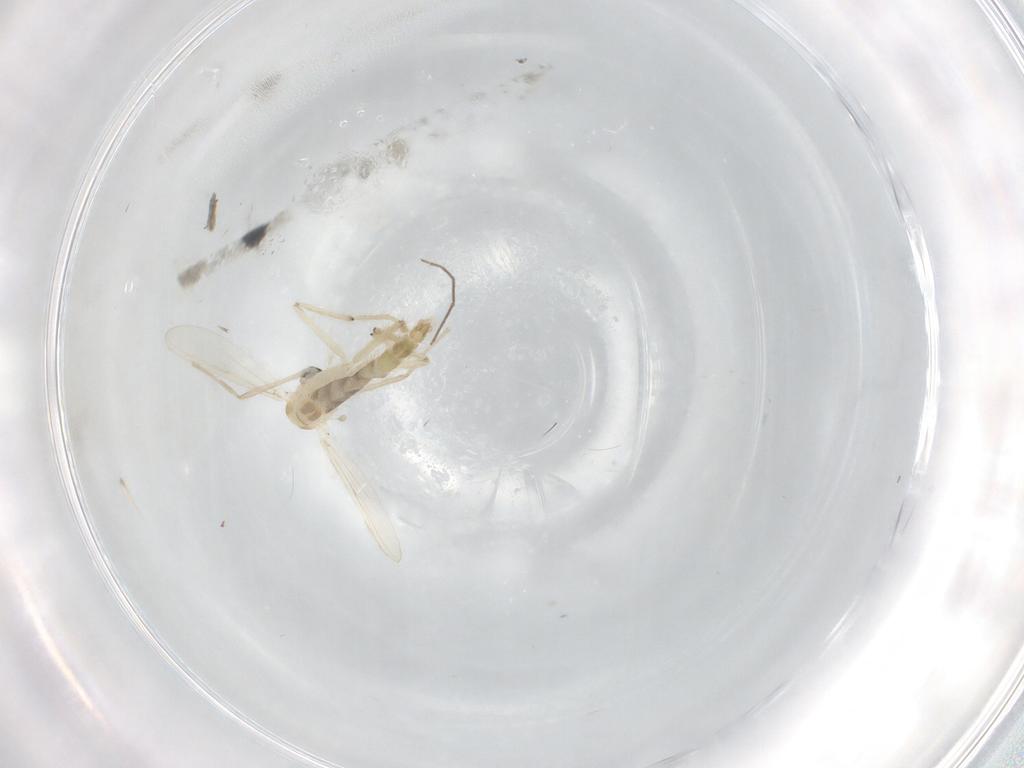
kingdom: Animalia
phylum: Arthropoda
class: Insecta
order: Diptera
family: Chironomidae
